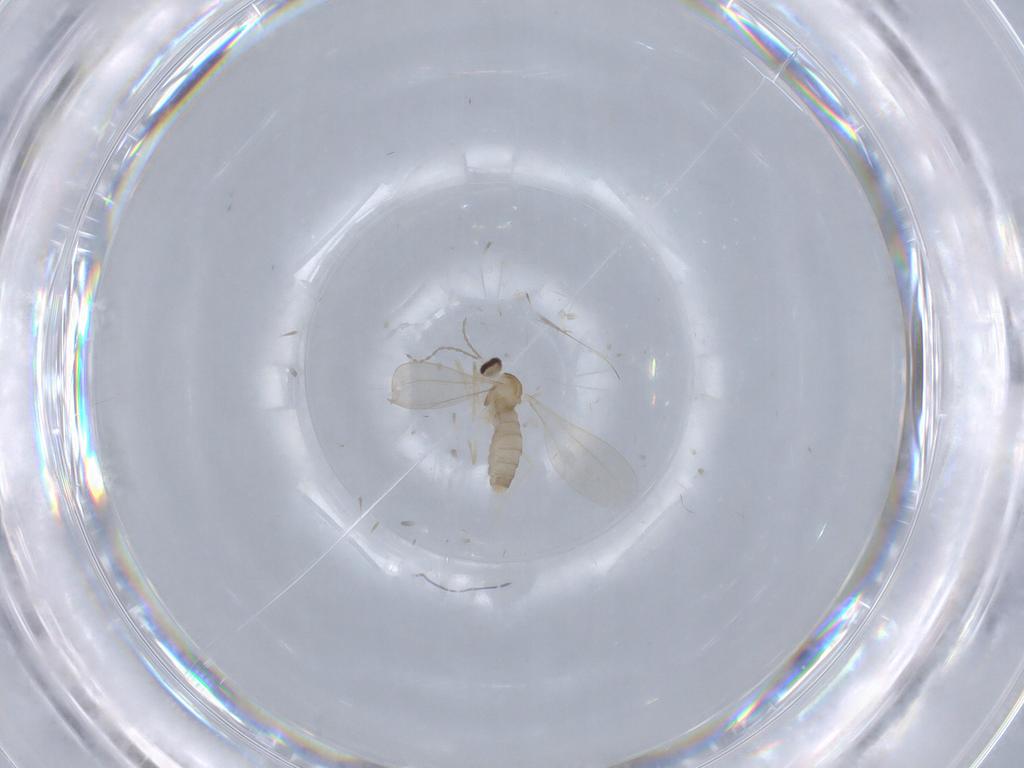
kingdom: Animalia
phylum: Arthropoda
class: Insecta
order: Diptera
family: Cecidomyiidae
